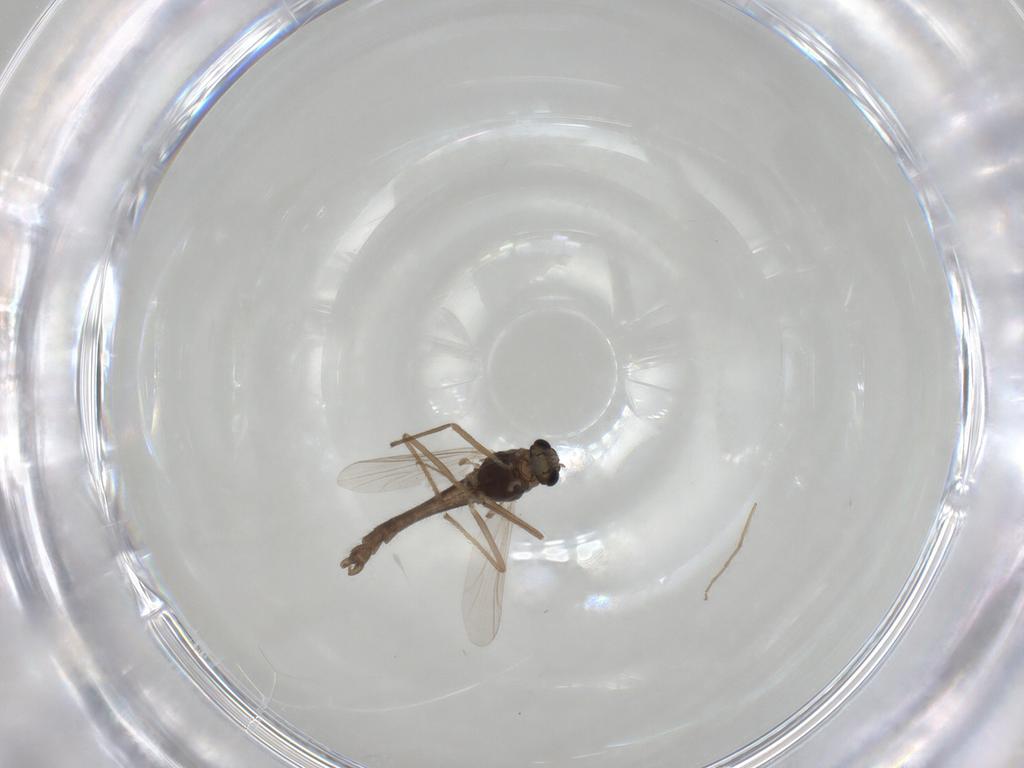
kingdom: Animalia
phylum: Arthropoda
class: Insecta
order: Diptera
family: Chironomidae
